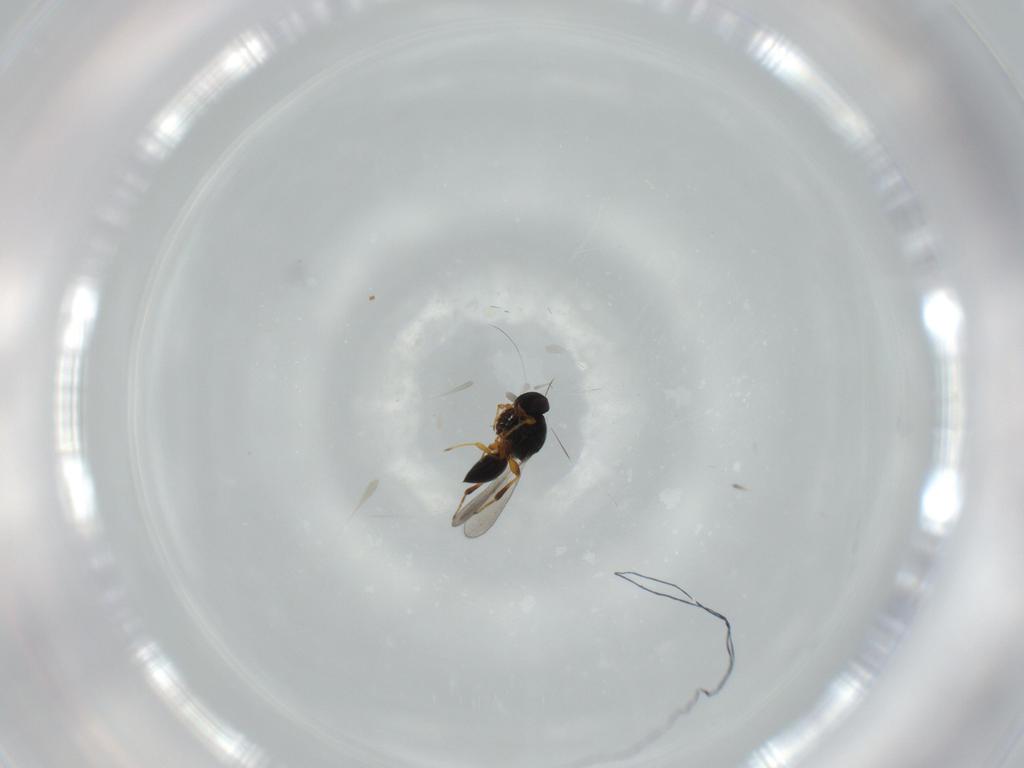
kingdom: Animalia
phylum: Arthropoda
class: Insecta
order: Hymenoptera
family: Platygastridae
